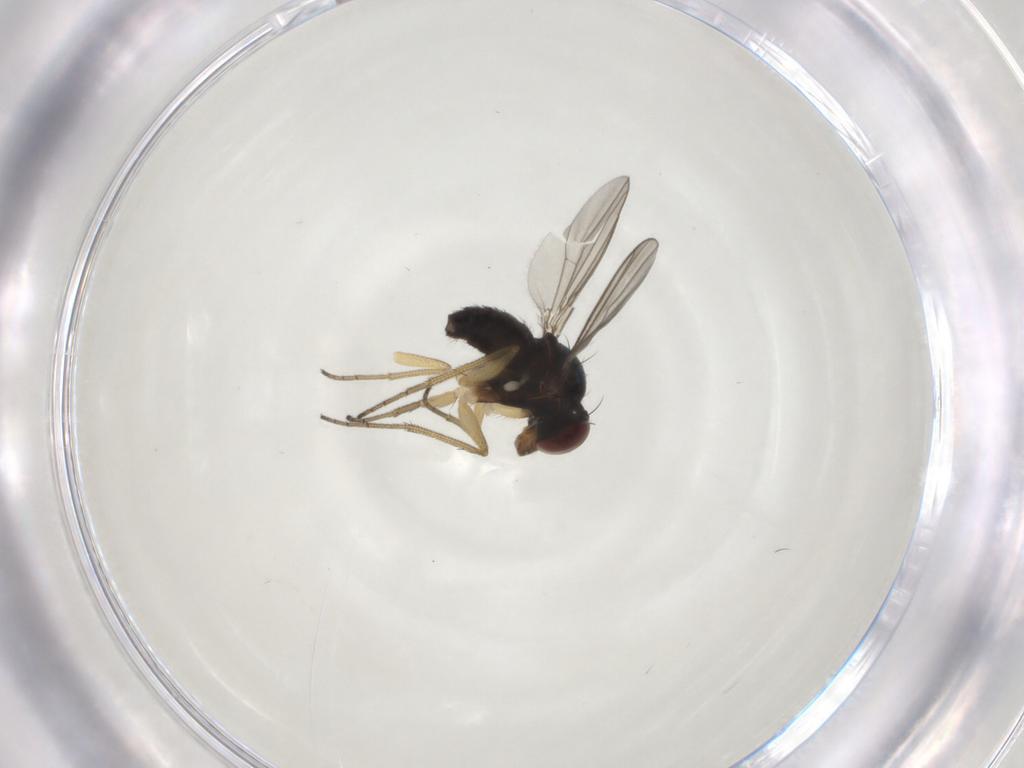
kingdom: Animalia
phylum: Arthropoda
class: Insecta
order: Diptera
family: Dolichopodidae
